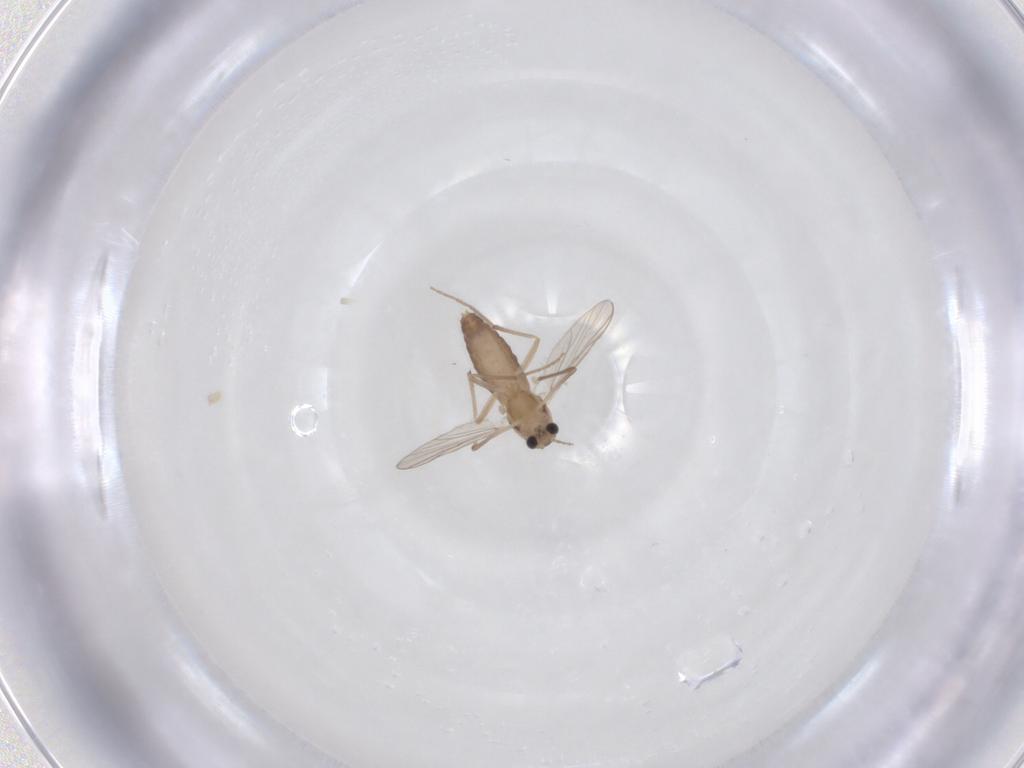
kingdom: Animalia
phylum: Arthropoda
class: Insecta
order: Diptera
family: Chironomidae
